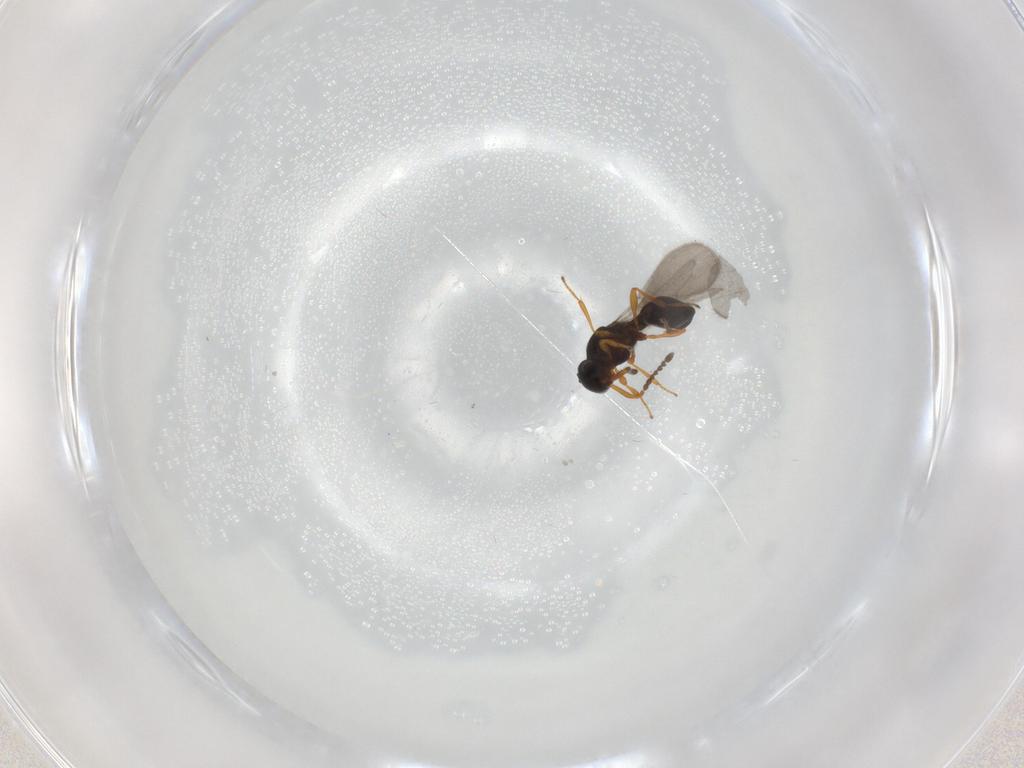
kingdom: Animalia
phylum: Arthropoda
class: Insecta
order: Hymenoptera
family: Platygastridae
